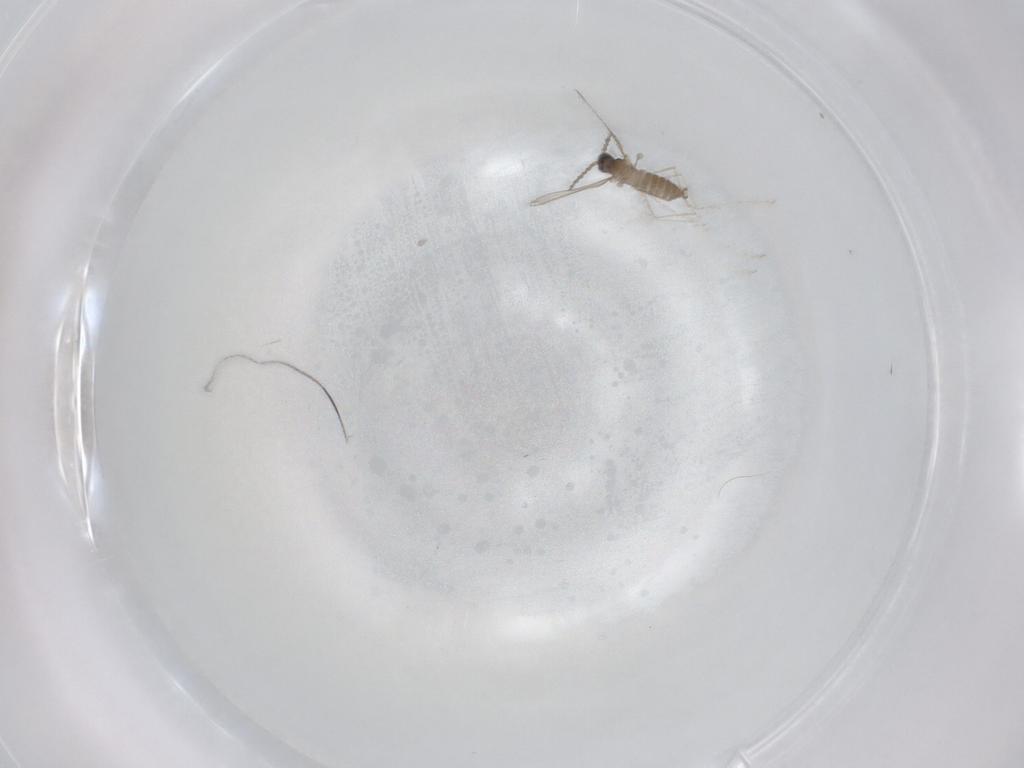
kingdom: Animalia
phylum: Arthropoda
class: Insecta
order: Diptera
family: Cecidomyiidae
